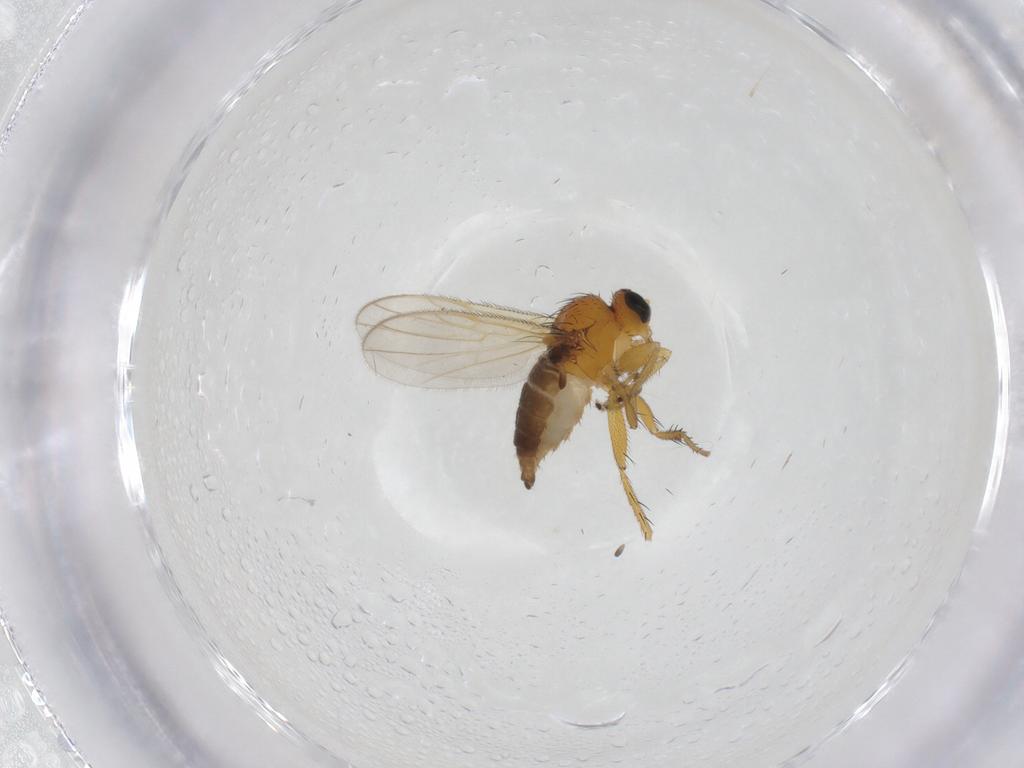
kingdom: Animalia
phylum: Arthropoda
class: Insecta
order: Diptera
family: Hybotidae
